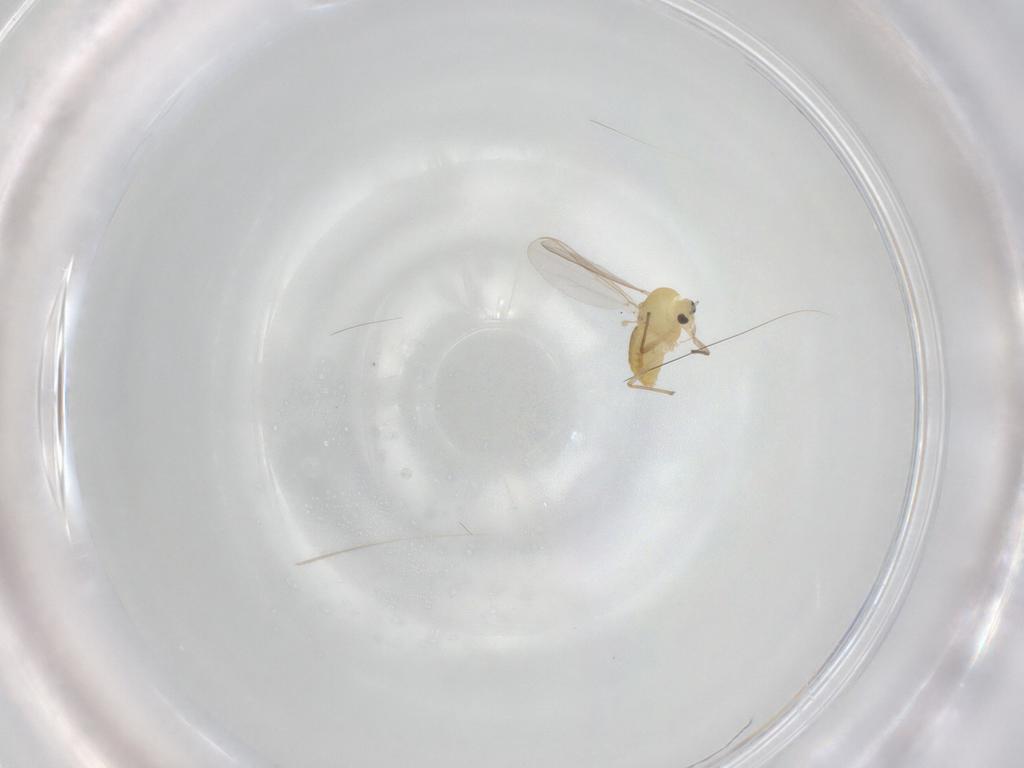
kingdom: Animalia
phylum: Arthropoda
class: Insecta
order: Diptera
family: Chironomidae
